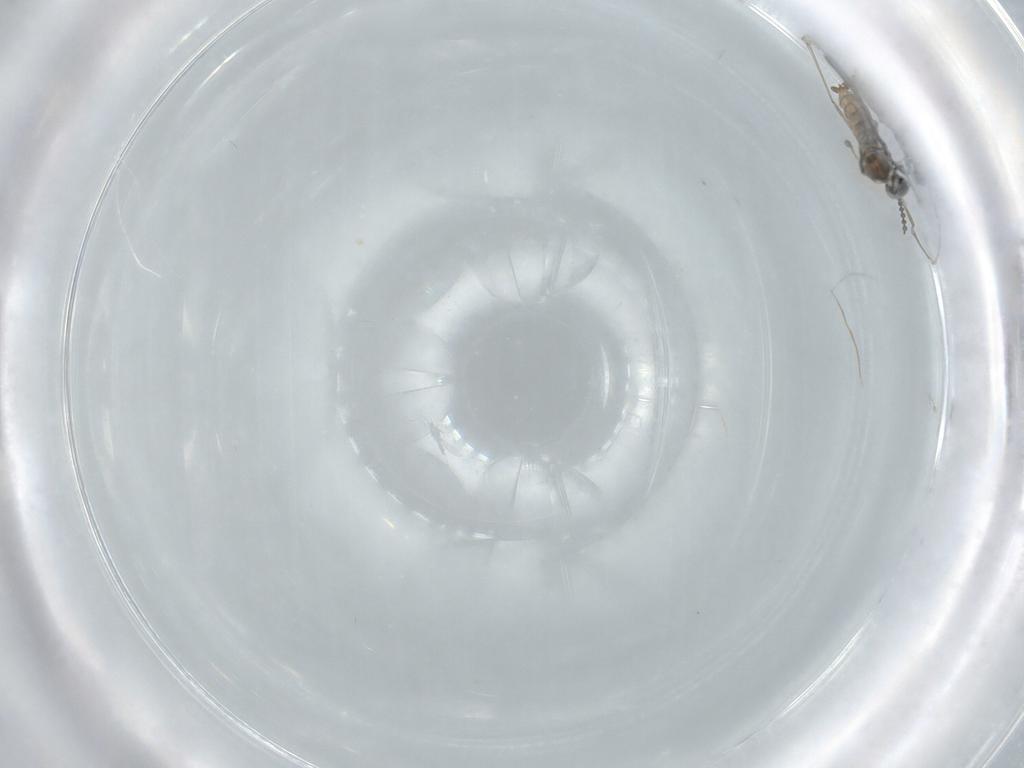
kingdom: Animalia
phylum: Arthropoda
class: Insecta
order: Diptera
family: Cecidomyiidae
